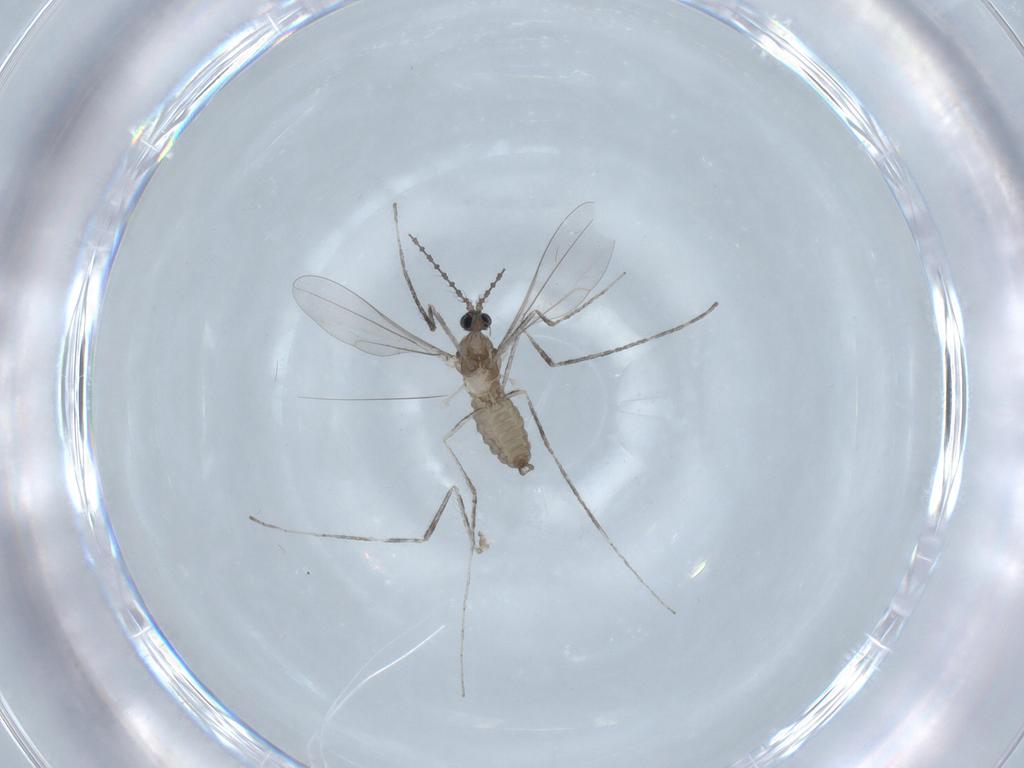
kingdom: Animalia
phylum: Arthropoda
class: Insecta
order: Diptera
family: Cecidomyiidae
